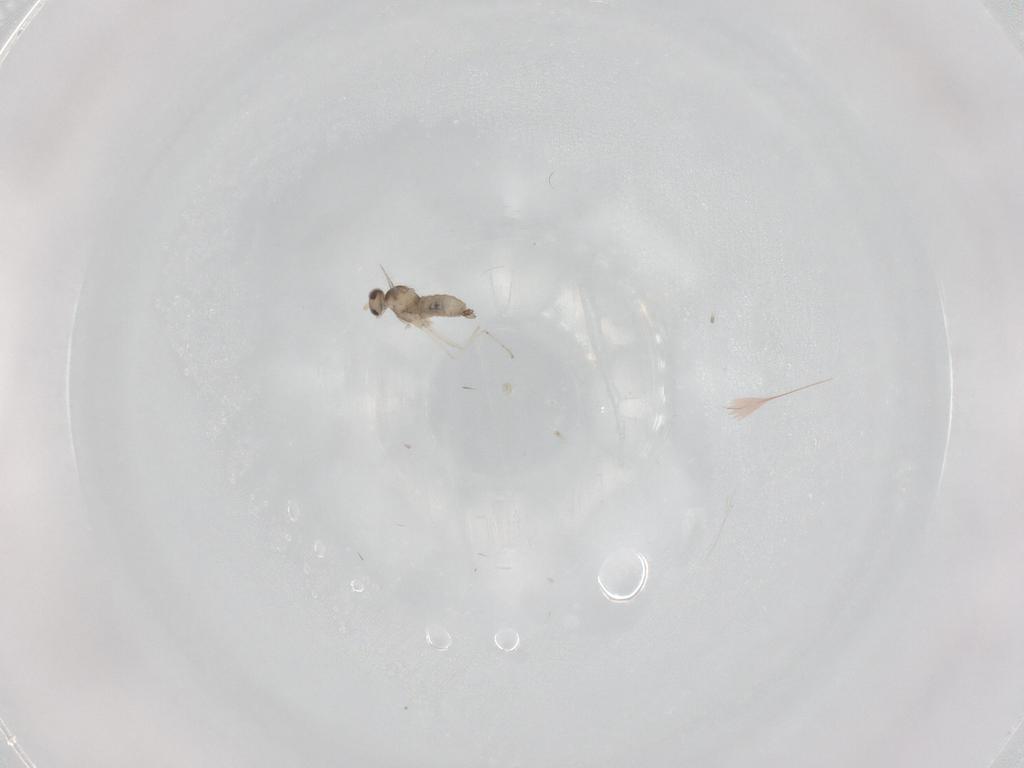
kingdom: Animalia
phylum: Arthropoda
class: Insecta
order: Diptera
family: Cecidomyiidae
